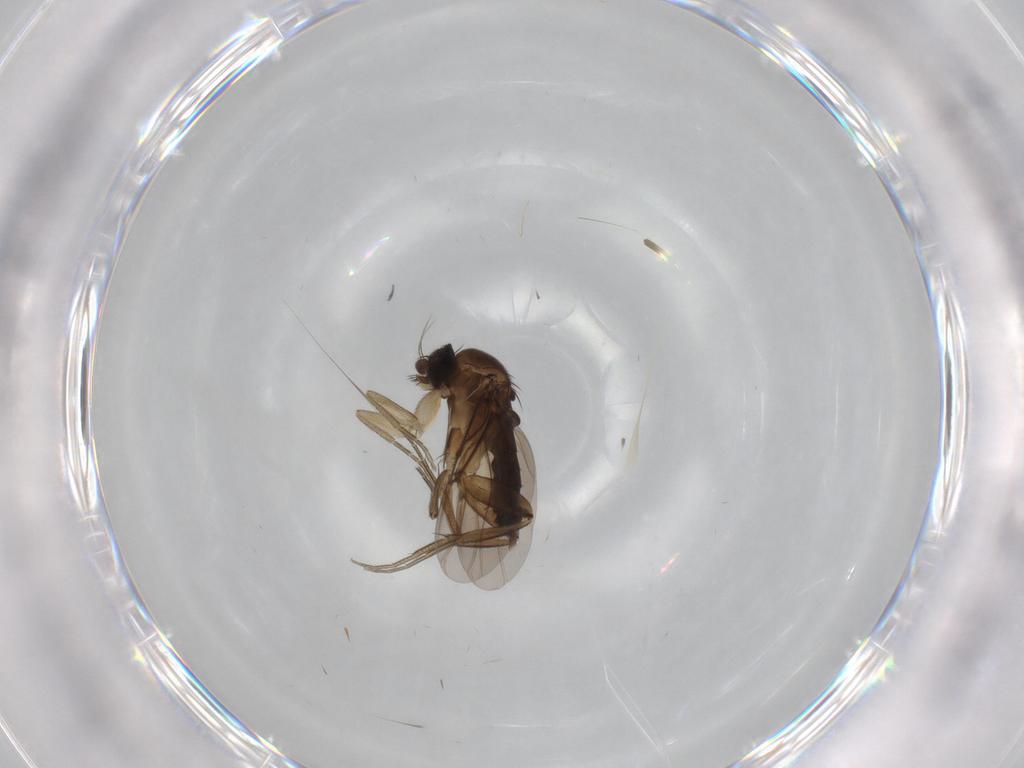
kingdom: Animalia
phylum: Arthropoda
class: Insecta
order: Diptera
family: Phoridae
